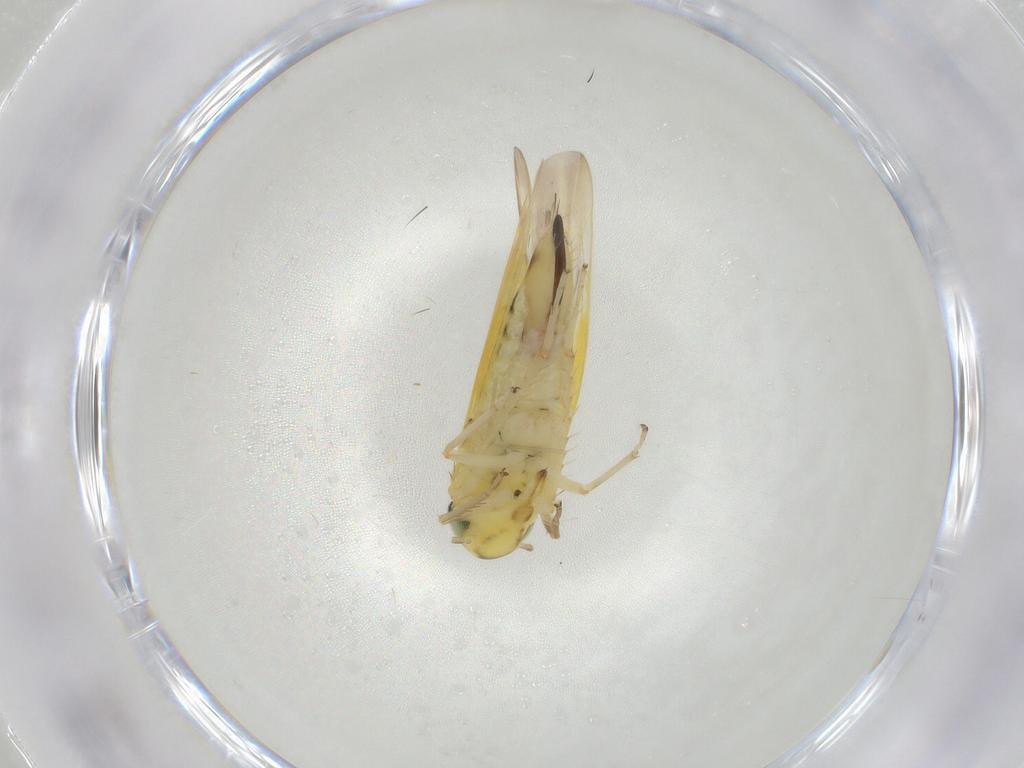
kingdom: Animalia
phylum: Arthropoda
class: Insecta
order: Hemiptera
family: Cicadellidae
